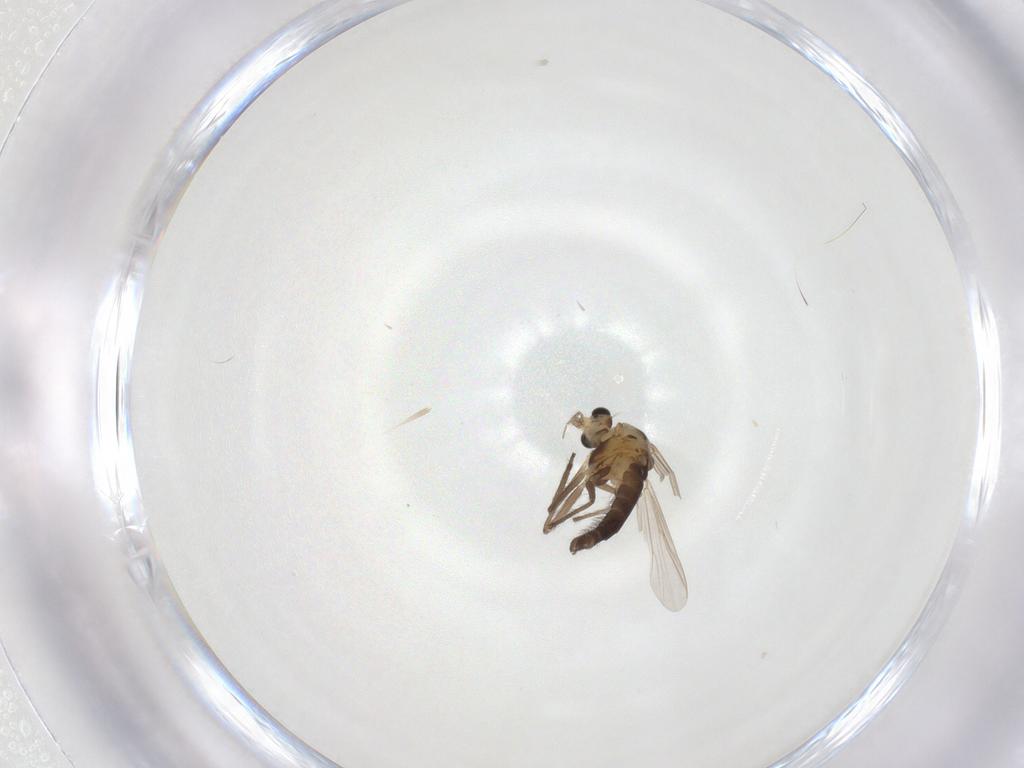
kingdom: Animalia
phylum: Arthropoda
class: Insecta
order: Diptera
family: Chironomidae
